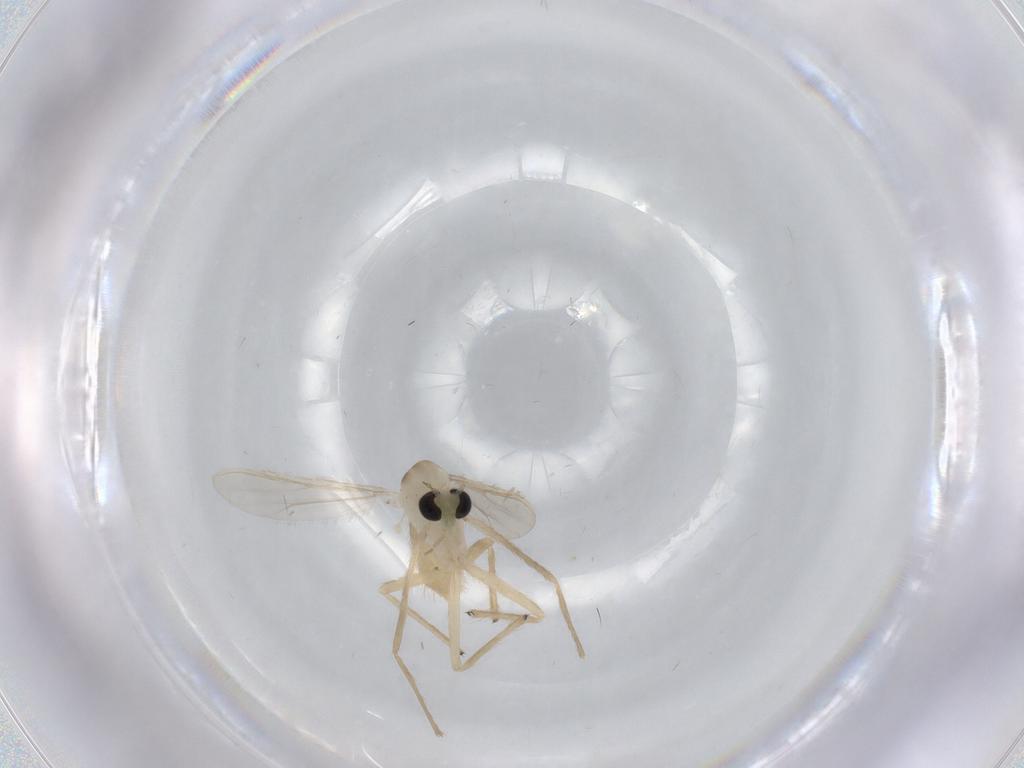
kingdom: Animalia
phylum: Arthropoda
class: Insecta
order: Diptera
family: Chironomidae
